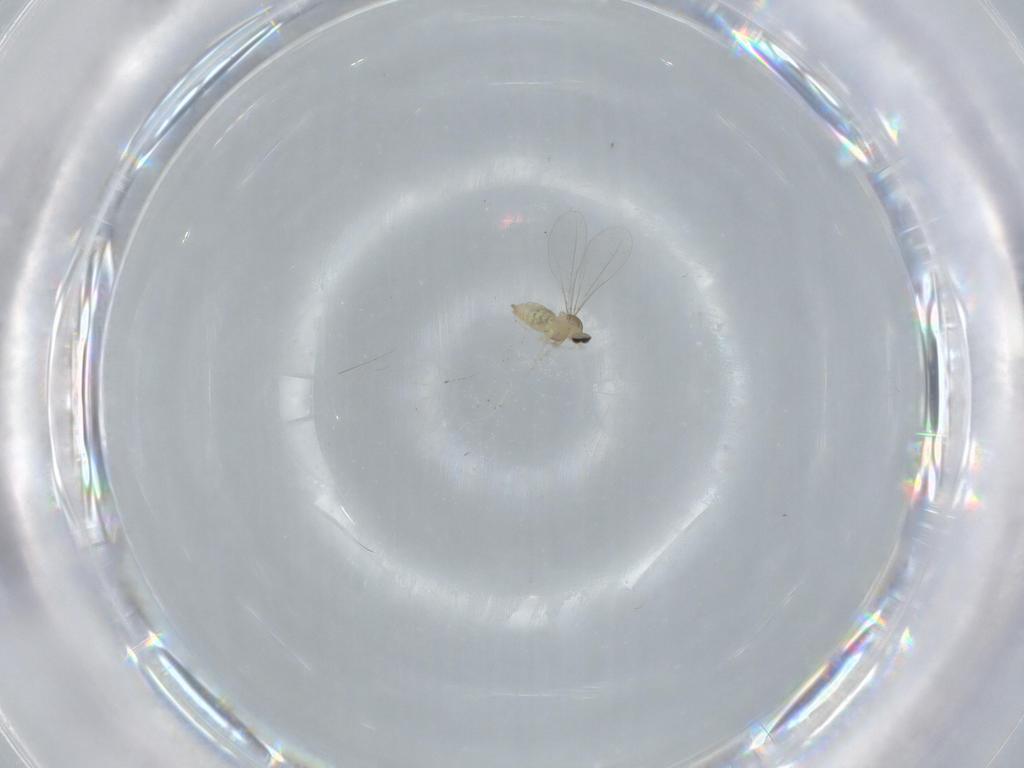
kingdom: Animalia
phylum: Arthropoda
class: Insecta
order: Diptera
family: Cecidomyiidae
